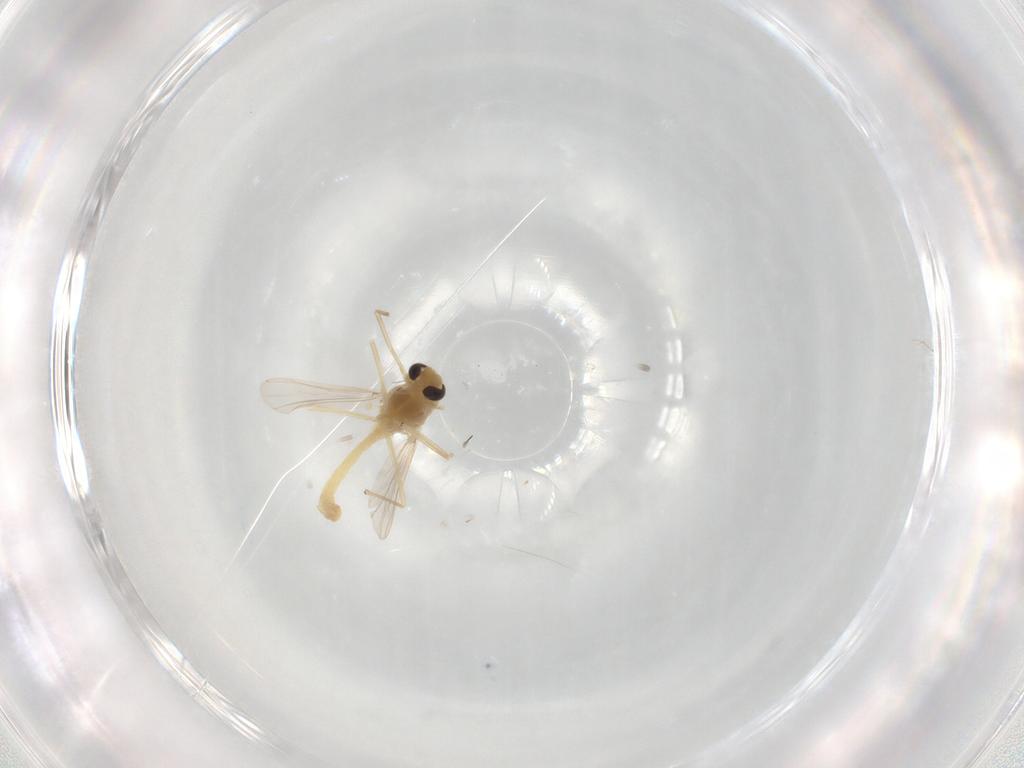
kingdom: Animalia
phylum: Arthropoda
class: Insecta
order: Diptera
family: Chironomidae
